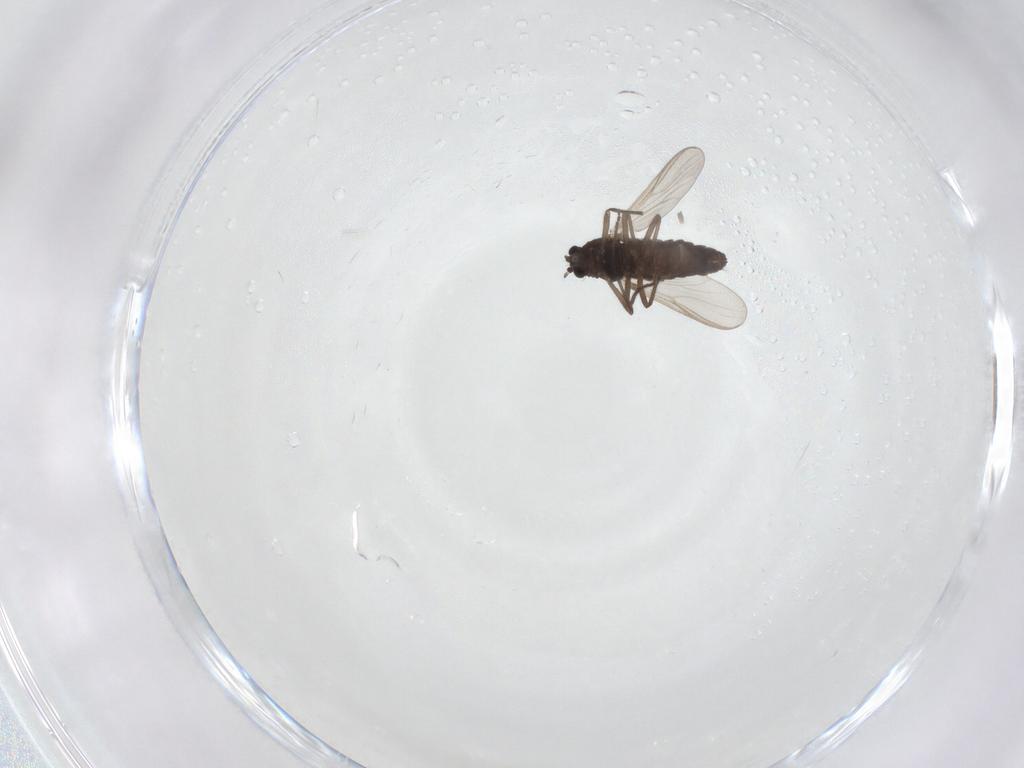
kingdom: Animalia
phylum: Arthropoda
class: Insecta
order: Diptera
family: Chironomidae
